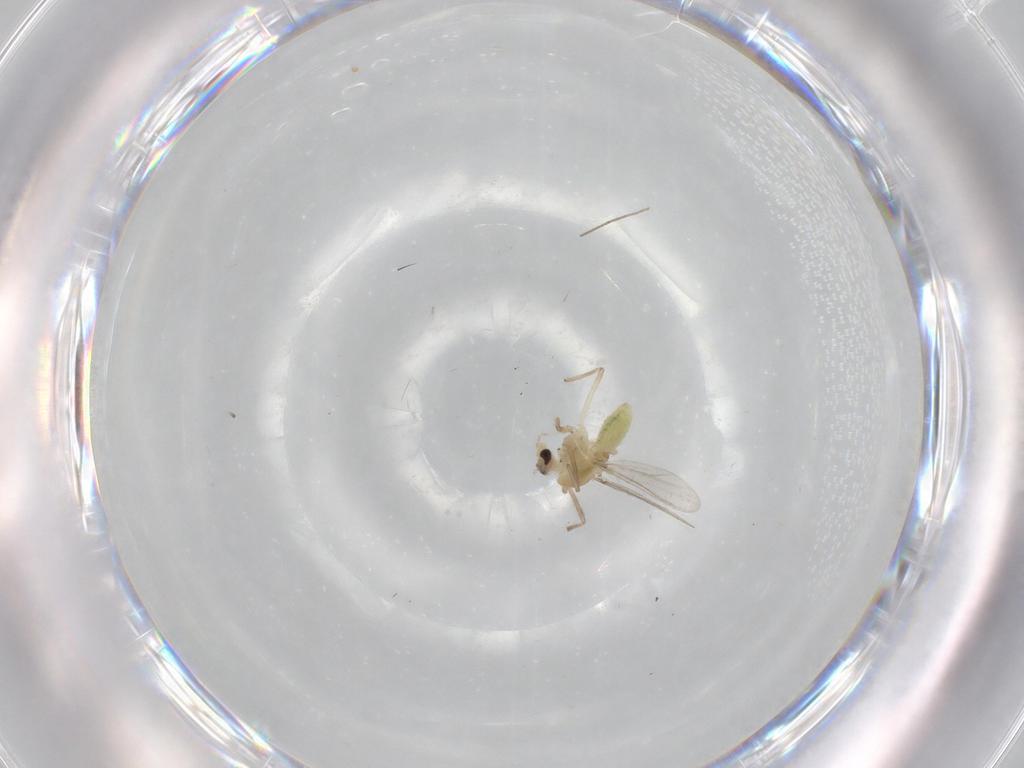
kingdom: Animalia
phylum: Arthropoda
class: Insecta
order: Diptera
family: Chironomidae
